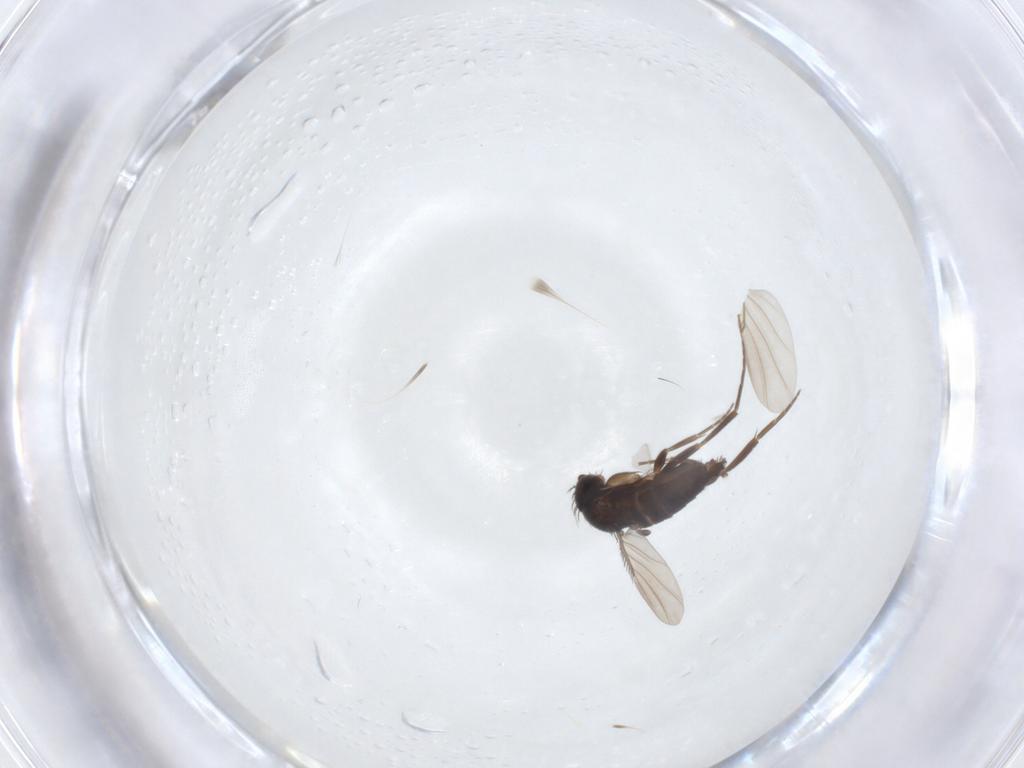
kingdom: Animalia
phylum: Arthropoda
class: Insecta
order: Diptera
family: Phoridae
